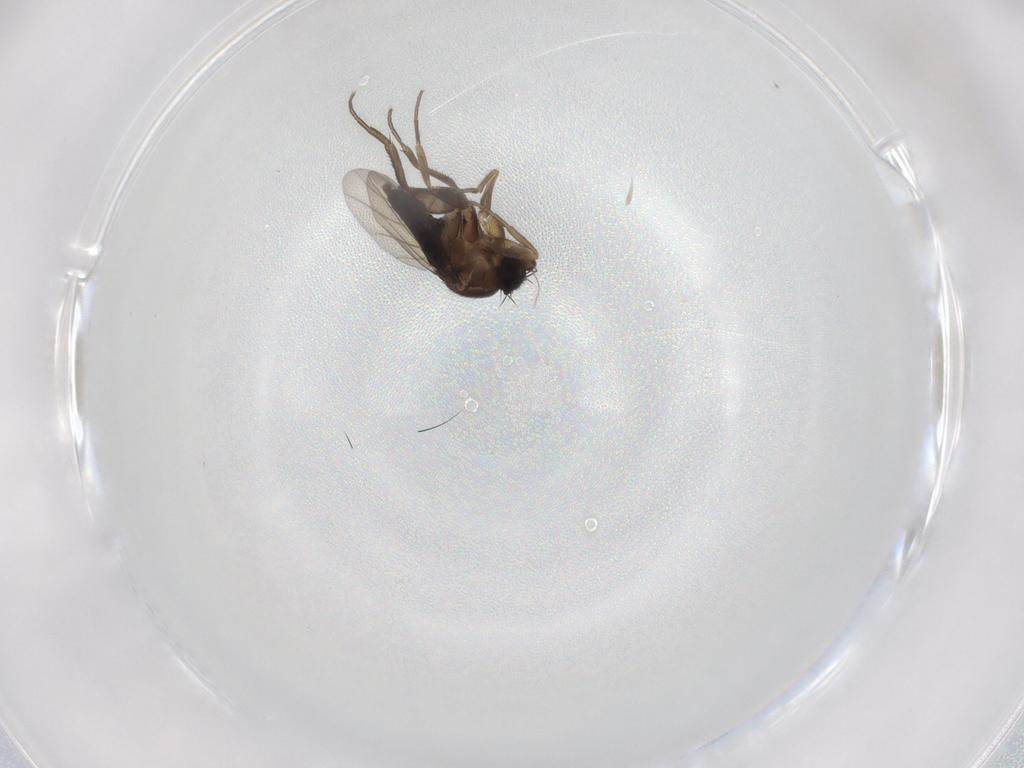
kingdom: Animalia
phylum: Arthropoda
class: Insecta
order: Diptera
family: Phoridae
